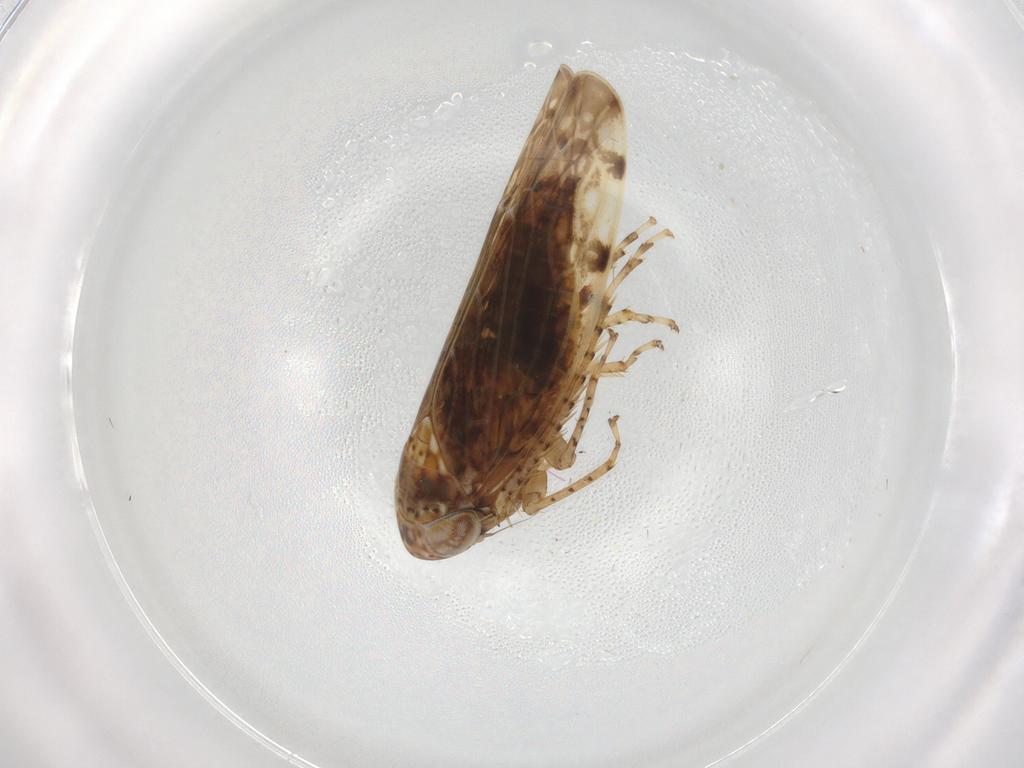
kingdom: Animalia
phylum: Arthropoda
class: Insecta
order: Hemiptera
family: Cicadellidae
